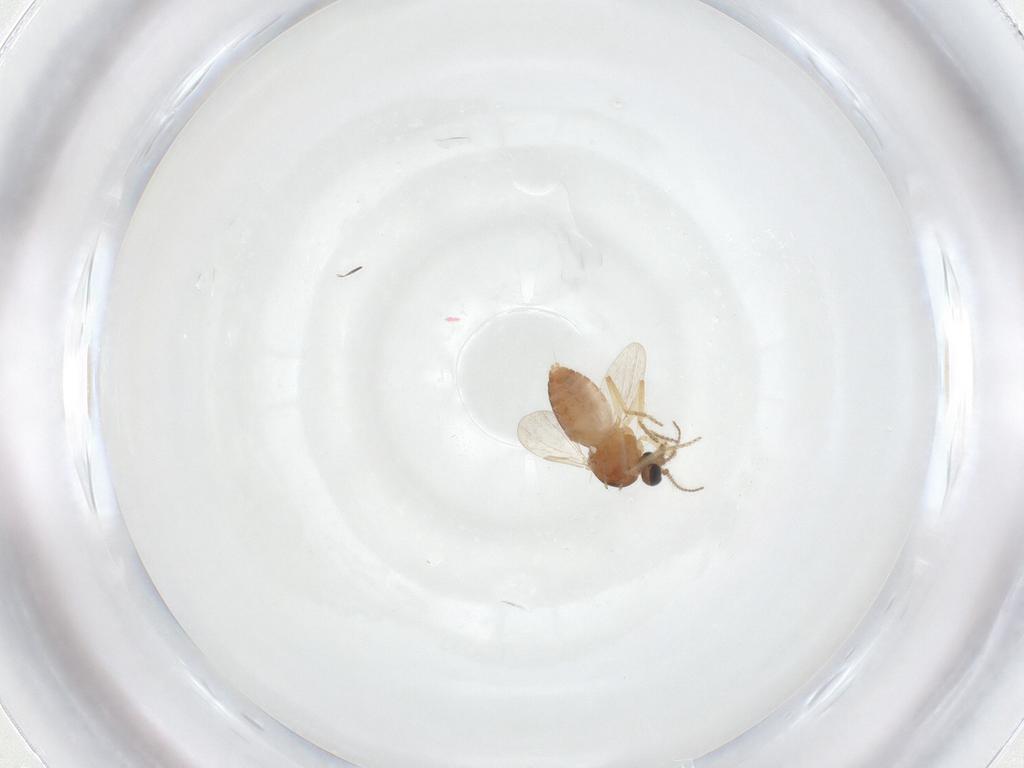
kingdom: Animalia
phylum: Arthropoda
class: Insecta
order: Diptera
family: Ceratopogonidae
